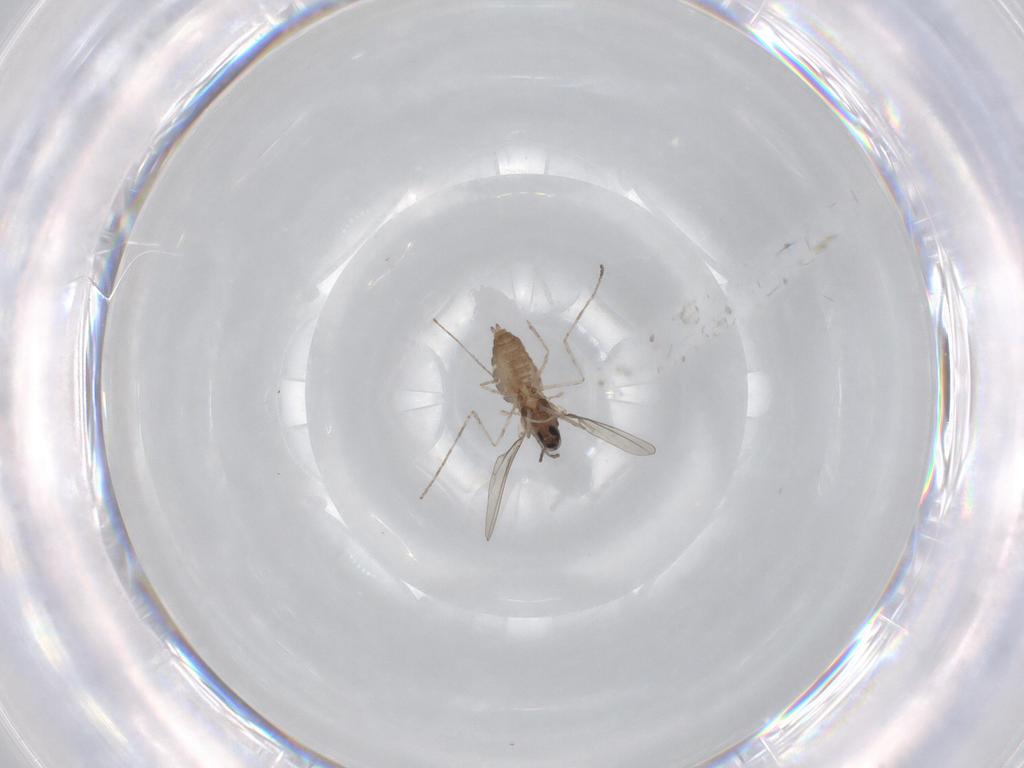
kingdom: Animalia
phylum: Arthropoda
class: Insecta
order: Diptera
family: Cecidomyiidae
